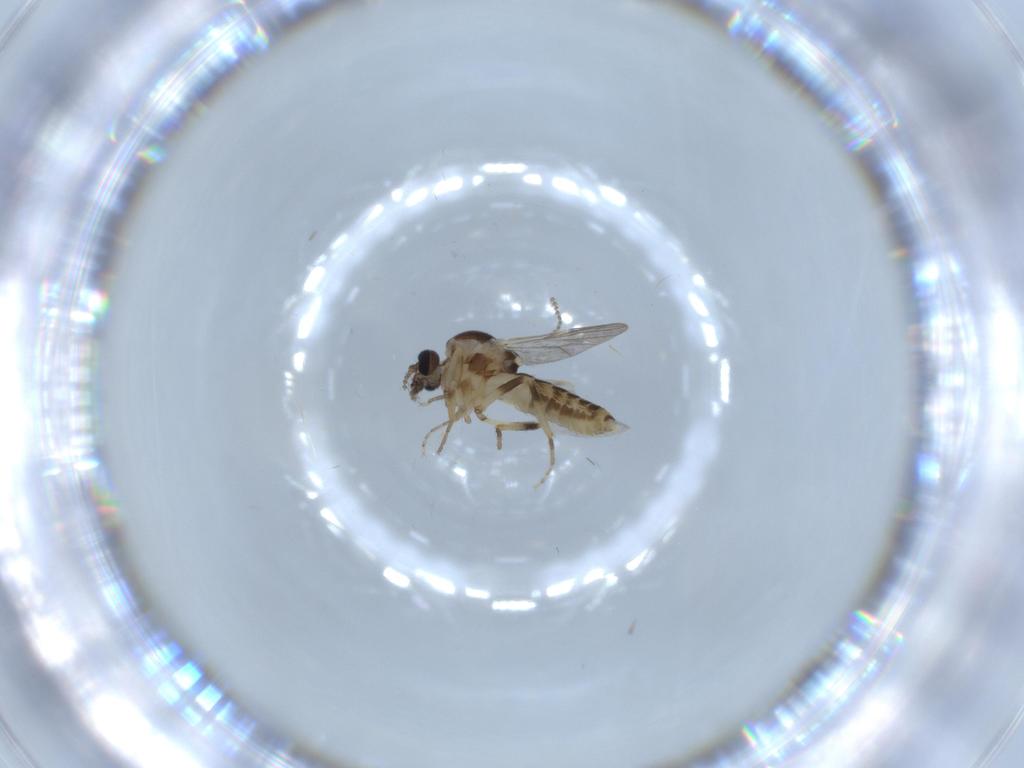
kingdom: Animalia
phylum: Arthropoda
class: Insecta
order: Diptera
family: Ceratopogonidae
